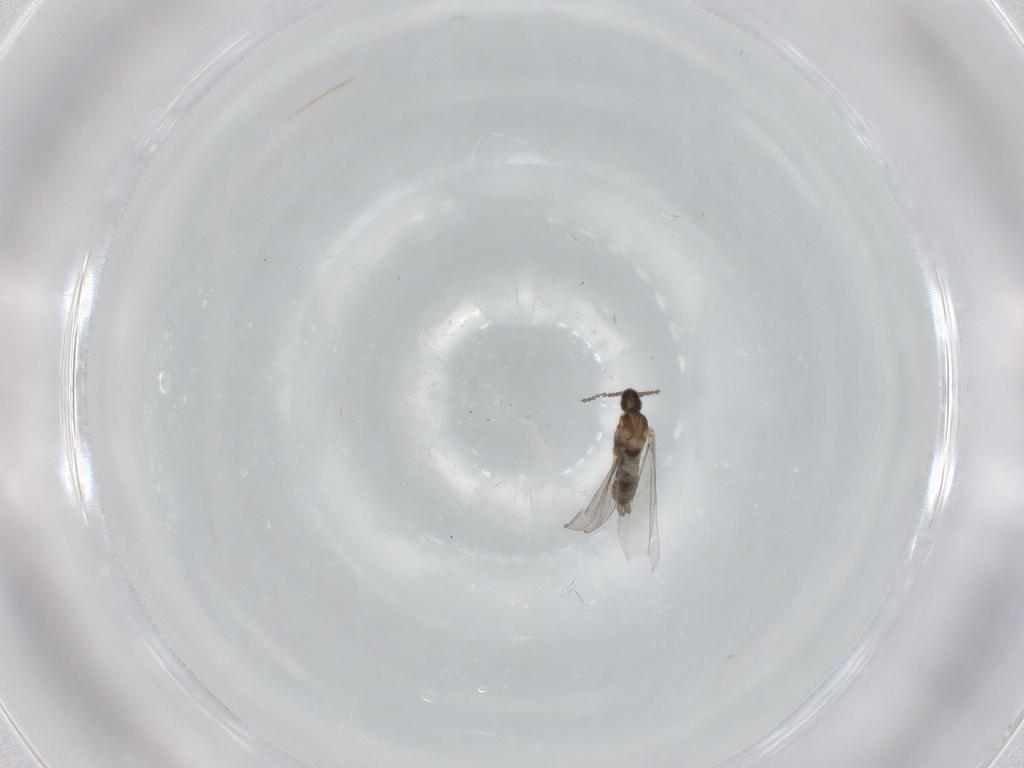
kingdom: Animalia
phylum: Arthropoda
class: Insecta
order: Diptera
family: Cecidomyiidae
